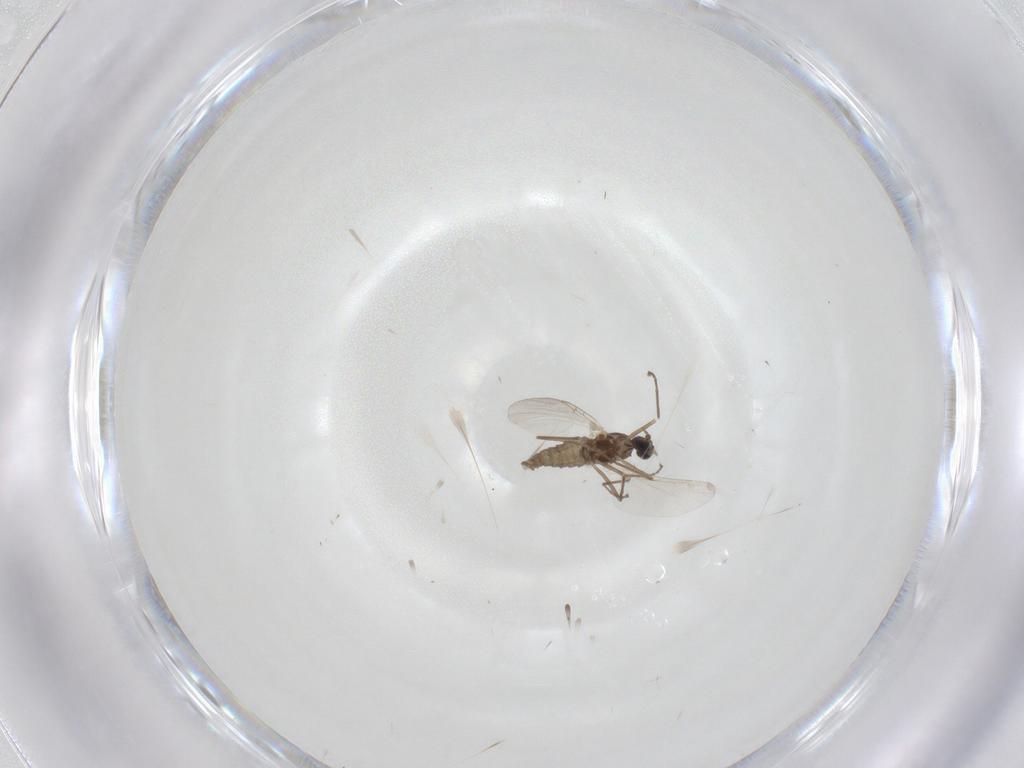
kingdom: Animalia
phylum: Arthropoda
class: Insecta
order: Diptera
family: Cecidomyiidae
